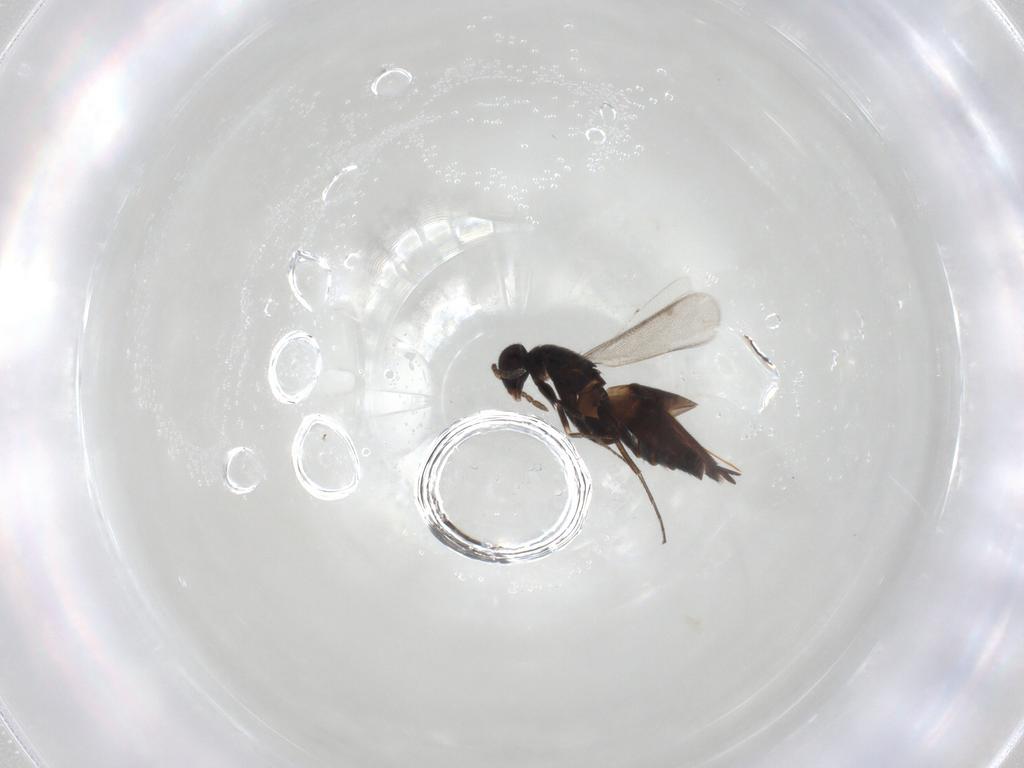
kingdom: Animalia
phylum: Arthropoda
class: Insecta
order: Hymenoptera
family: Eulophidae
